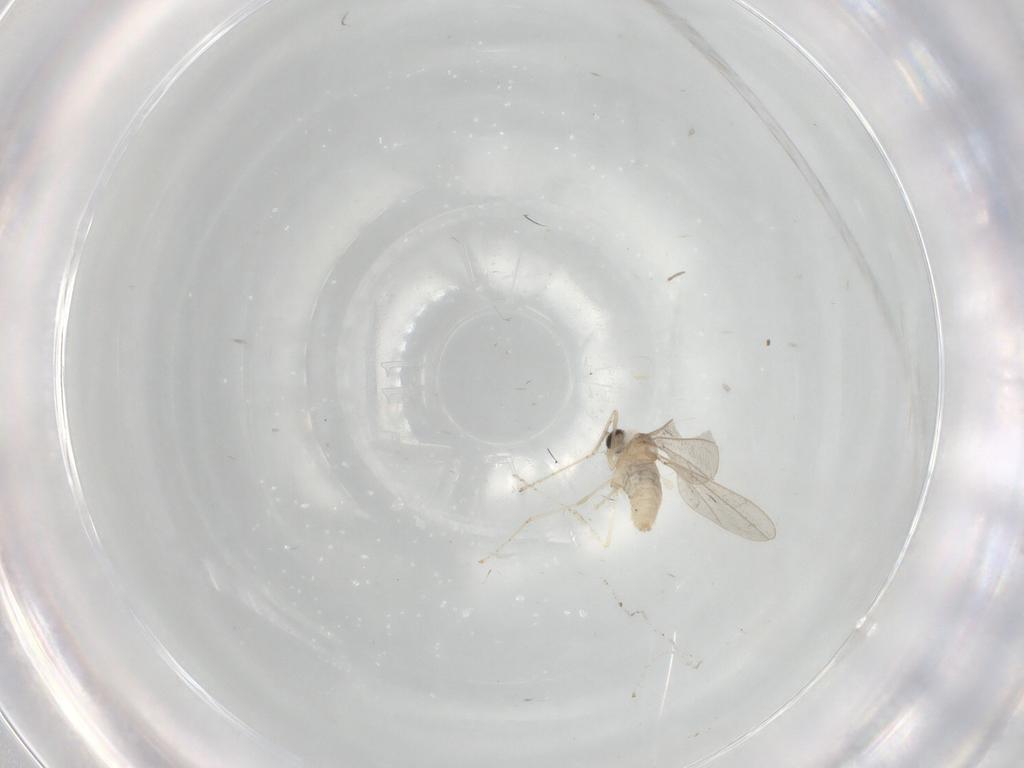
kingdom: Animalia
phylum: Arthropoda
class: Insecta
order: Diptera
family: Cecidomyiidae
